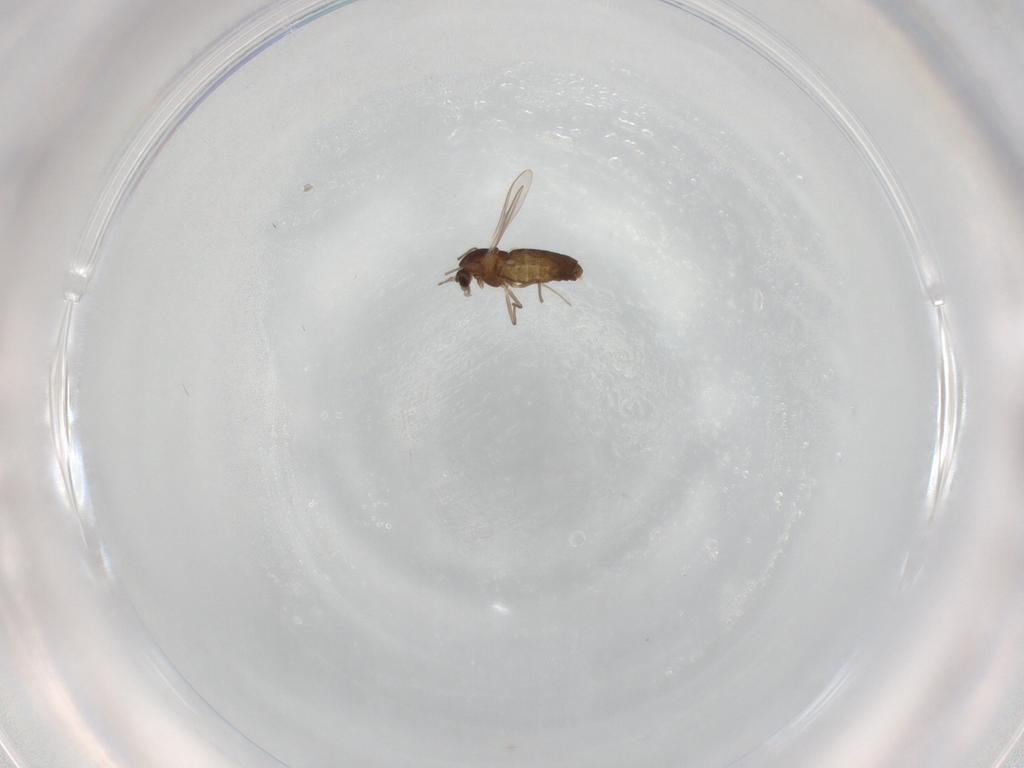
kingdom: Animalia
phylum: Arthropoda
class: Insecta
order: Diptera
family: Chironomidae
